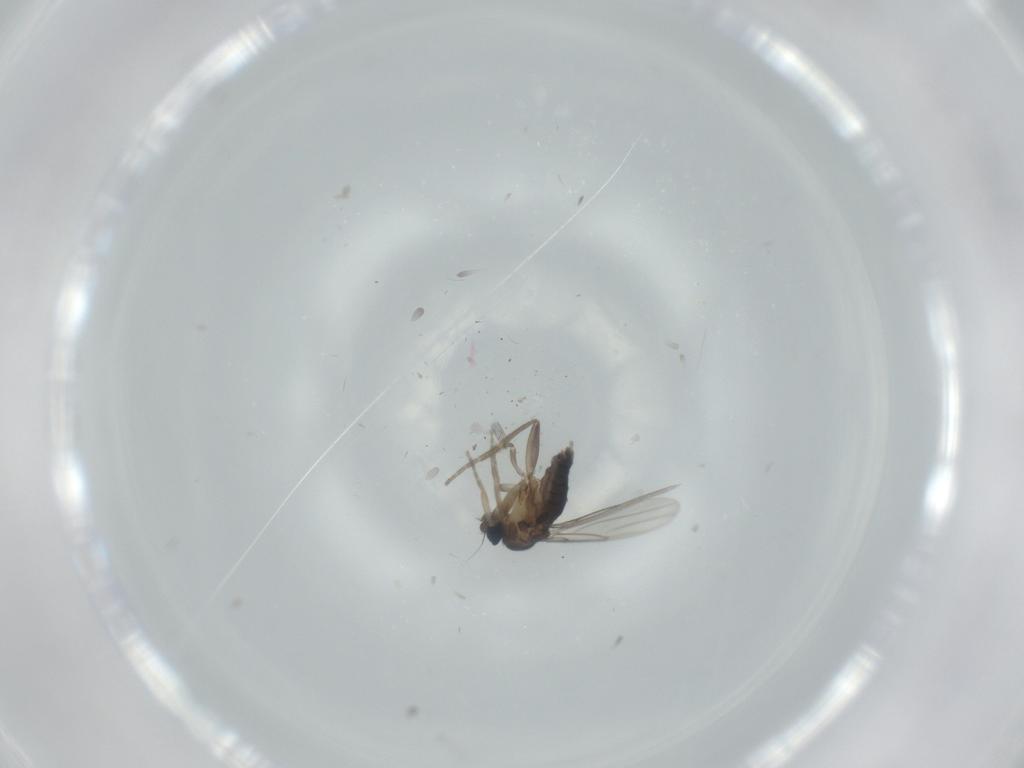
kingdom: Animalia
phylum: Arthropoda
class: Insecta
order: Diptera
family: Phoridae
